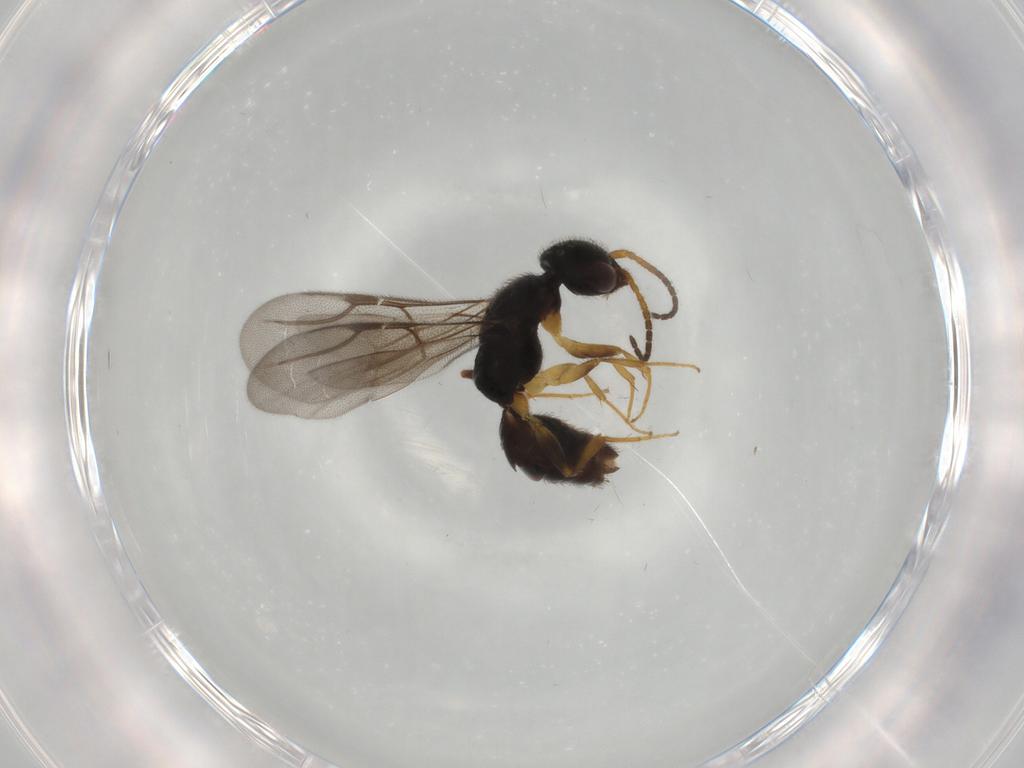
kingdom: Animalia
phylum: Arthropoda
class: Insecta
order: Hymenoptera
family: Bethylidae
